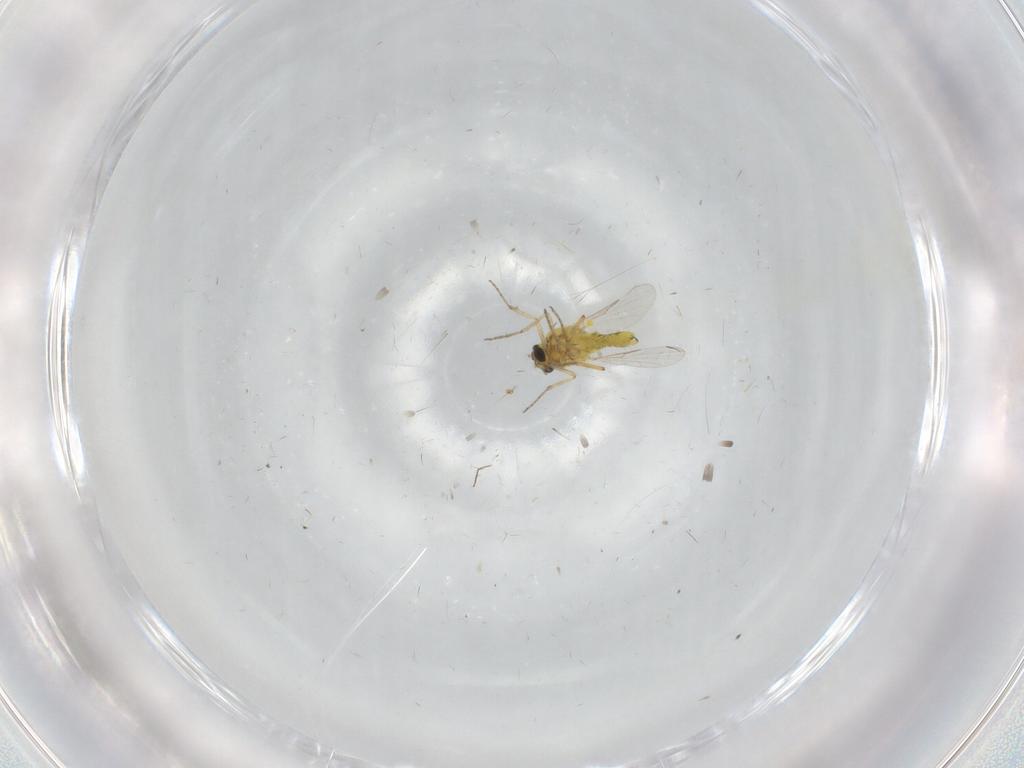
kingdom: Animalia
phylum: Arthropoda
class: Insecta
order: Diptera
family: Ceratopogonidae
